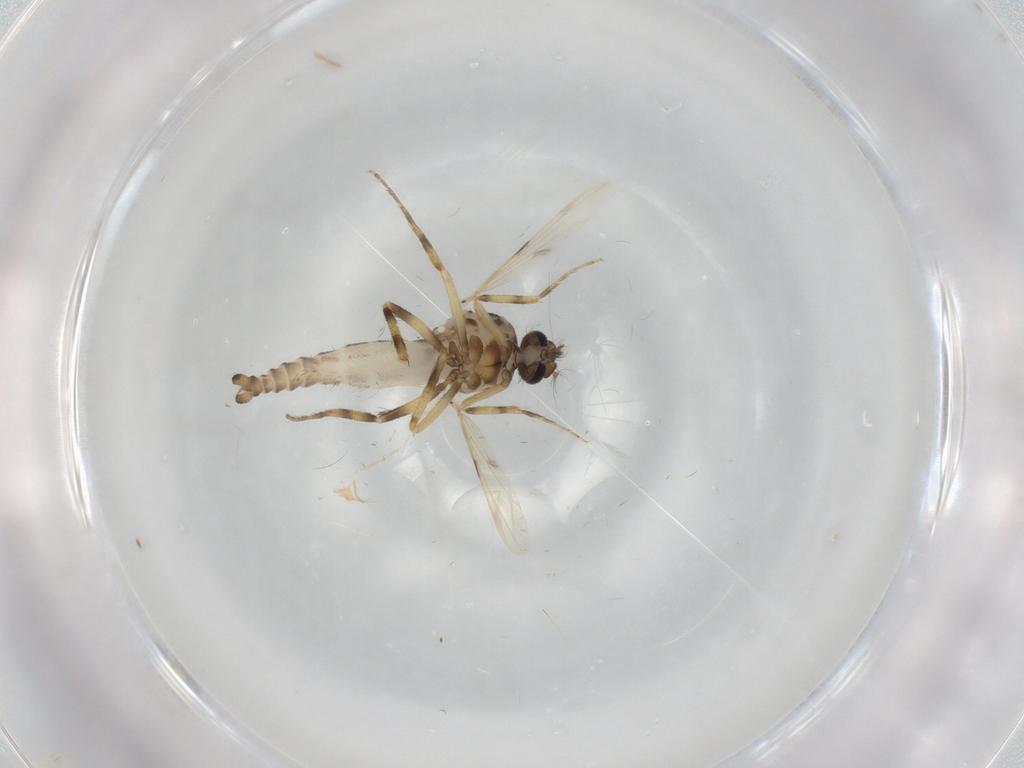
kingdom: Animalia
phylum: Arthropoda
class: Insecta
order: Diptera
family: Ceratopogonidae
